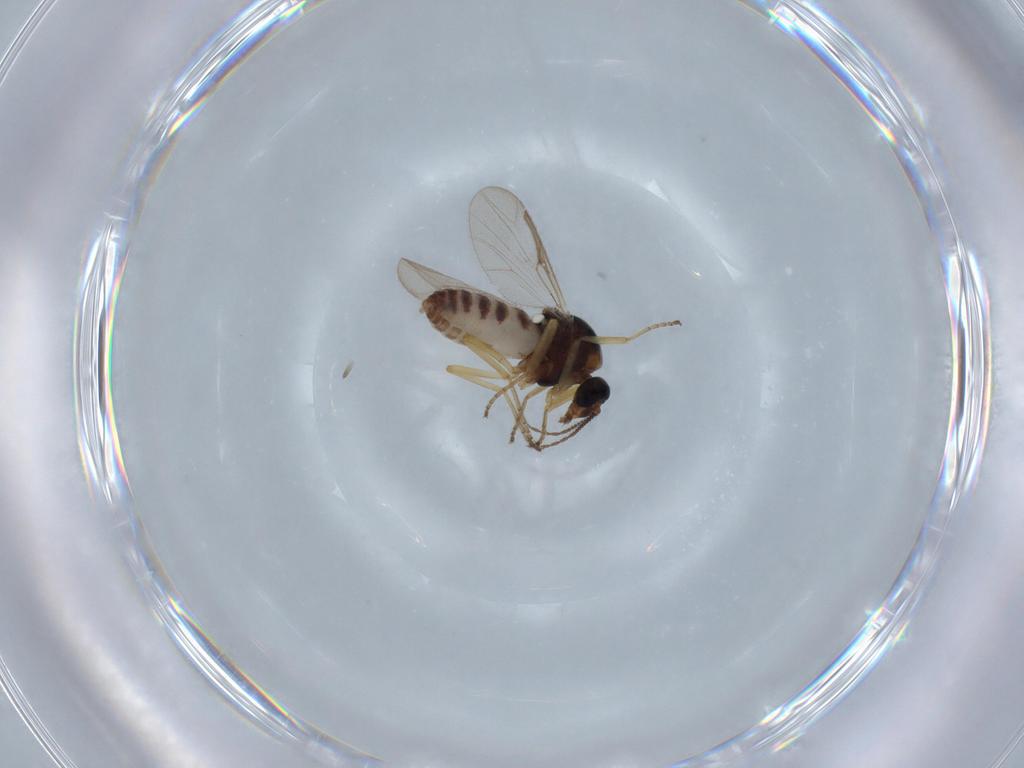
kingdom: Animalia
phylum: Arthropoda
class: Insecta
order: Diptera
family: Ceratopogonidae
